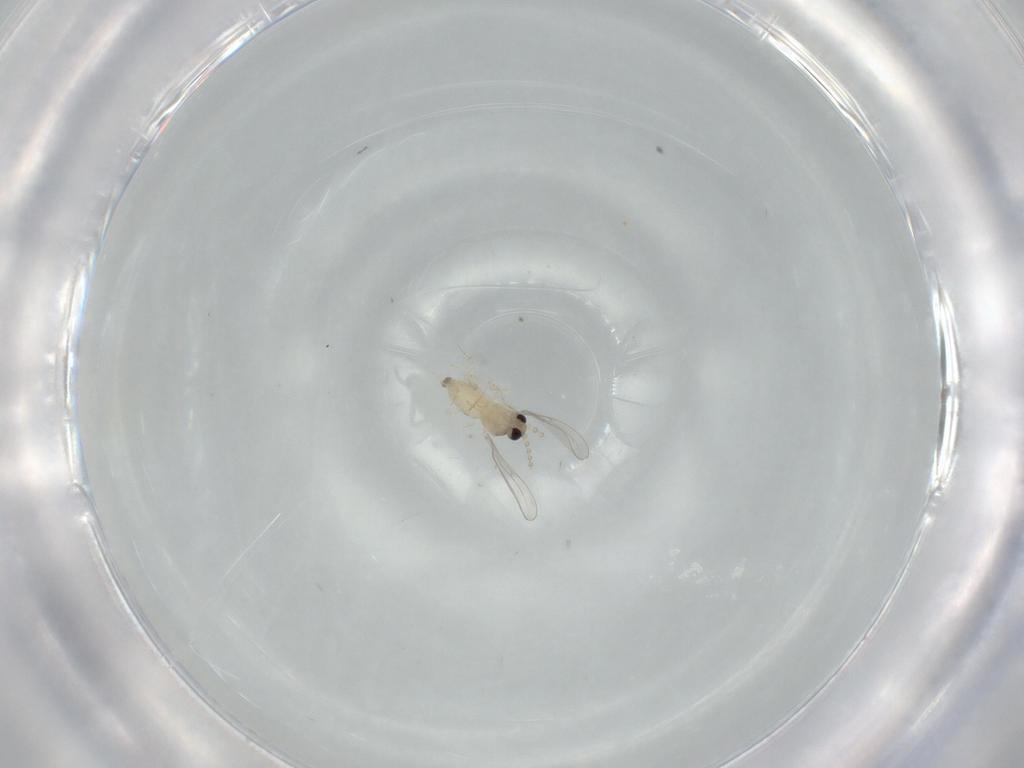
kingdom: Animalia
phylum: Arthropoda
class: Insecta
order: Diptera
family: Cecidomyiidae
